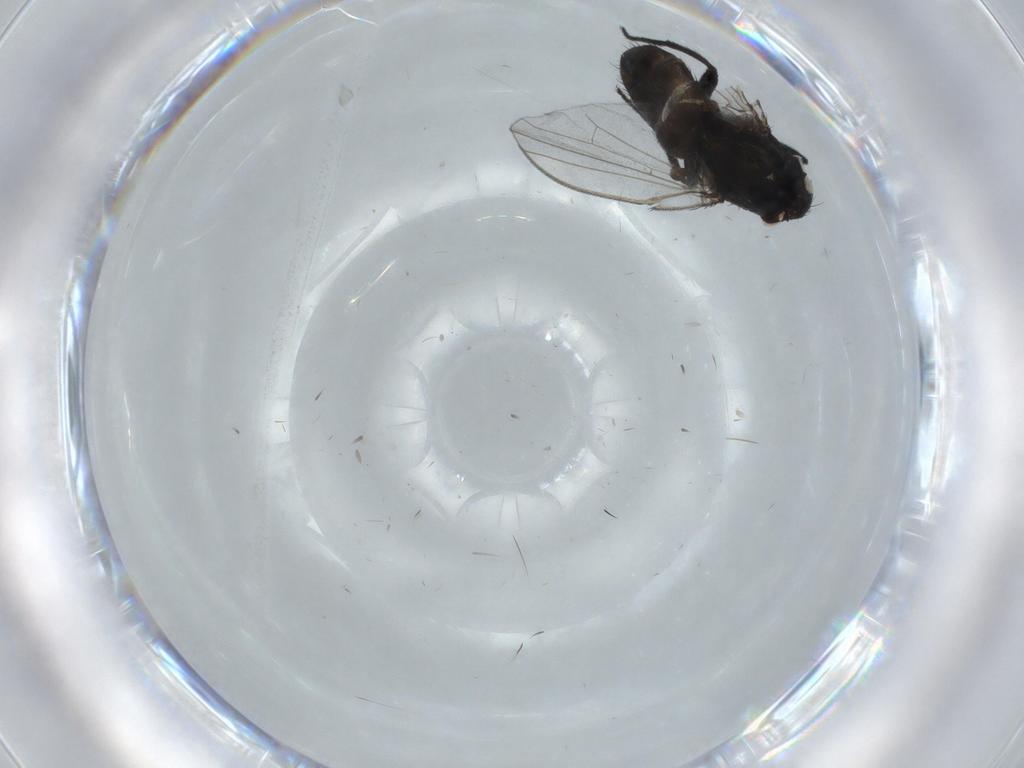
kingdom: Animalia
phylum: Arthropoda
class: Insecta
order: Diptera
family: Milichiidae
